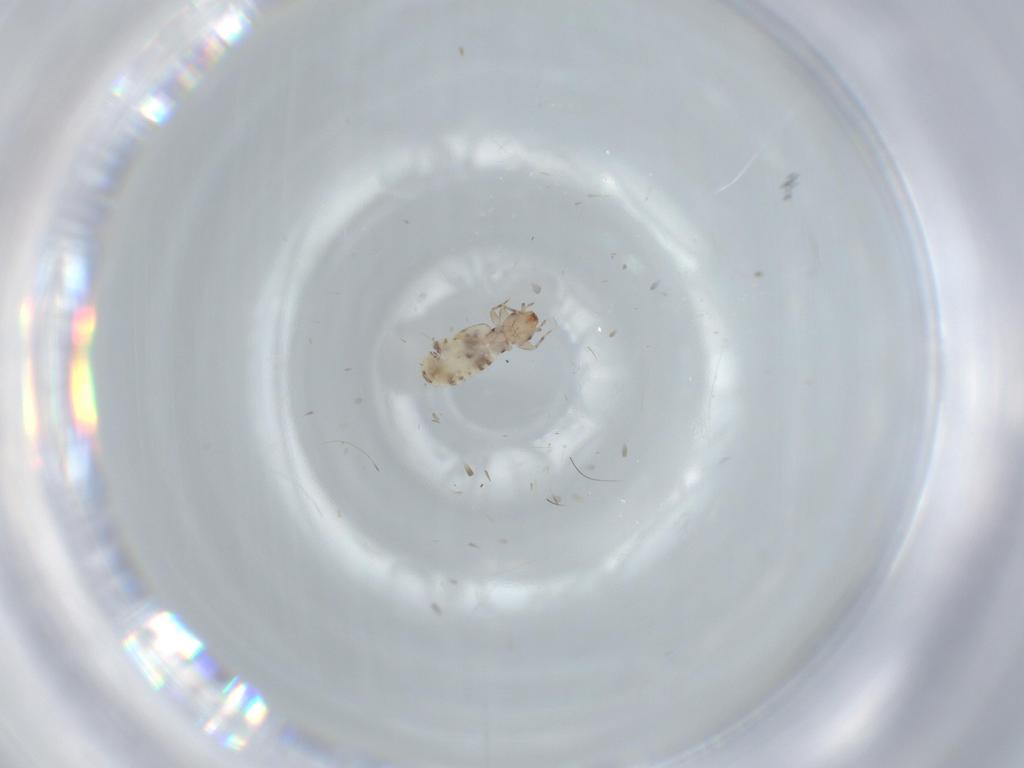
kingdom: Animalia
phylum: Arthropoda
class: Insecta
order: Psocodea
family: Liposcelididae
